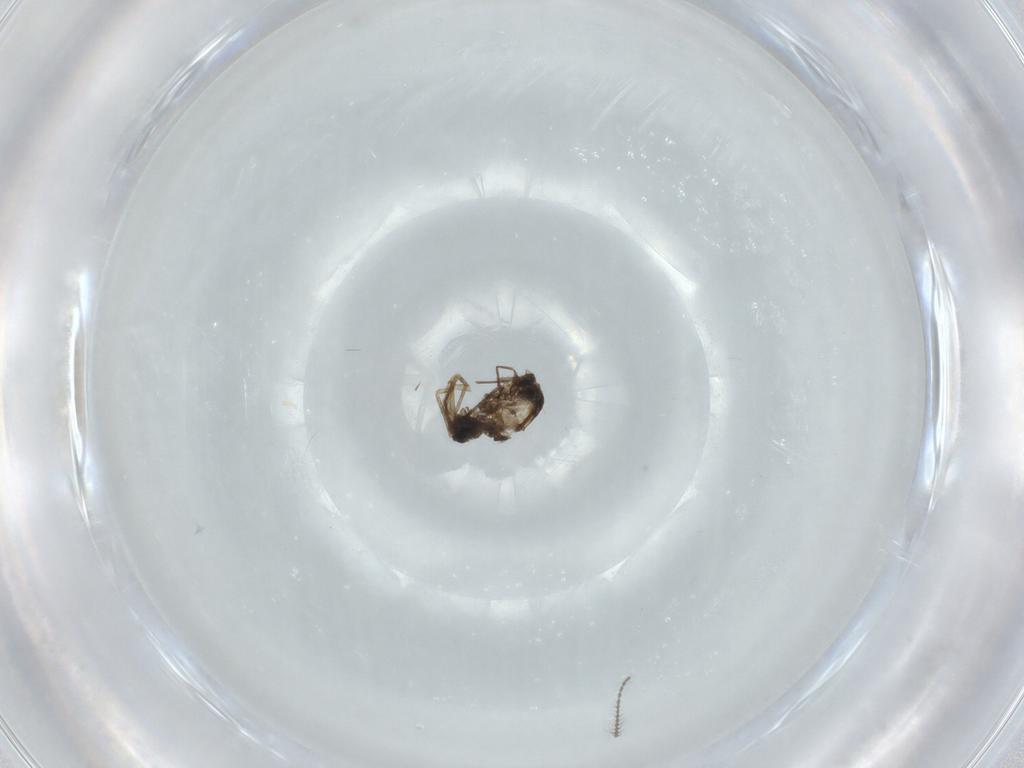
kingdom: Animalia
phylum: Arthropoda
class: Insecta
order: Diptera
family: Chironomidae
